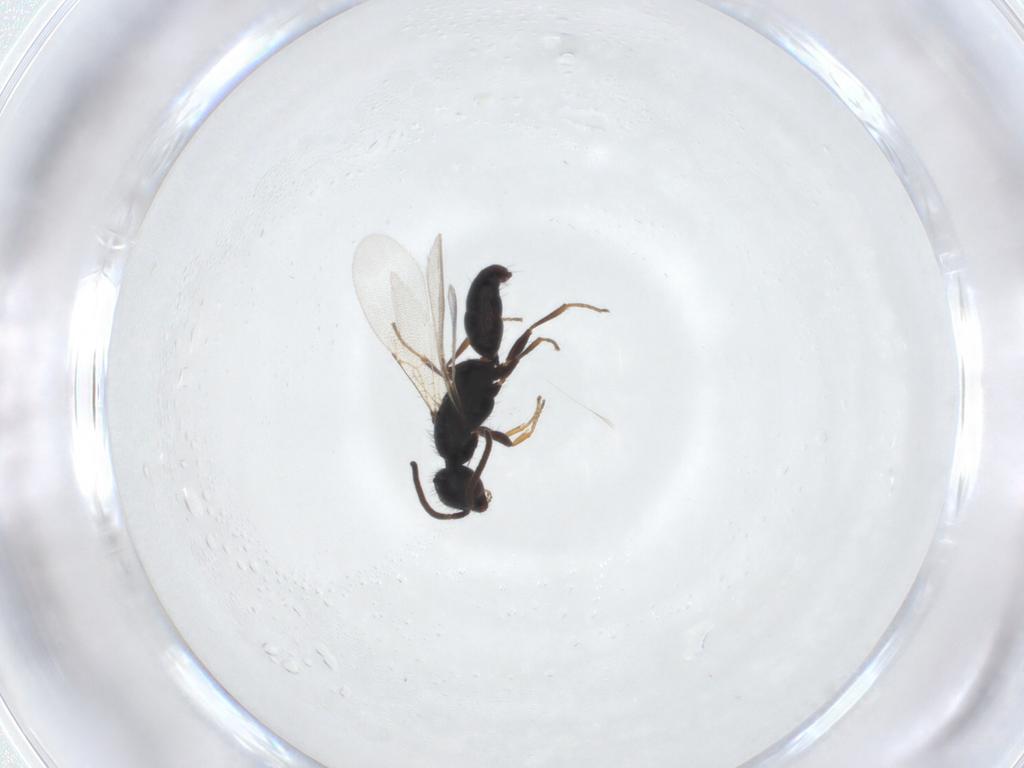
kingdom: Animalia
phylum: Arthropoda
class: Insecta
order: Hymenoptera
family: Bethylidae
